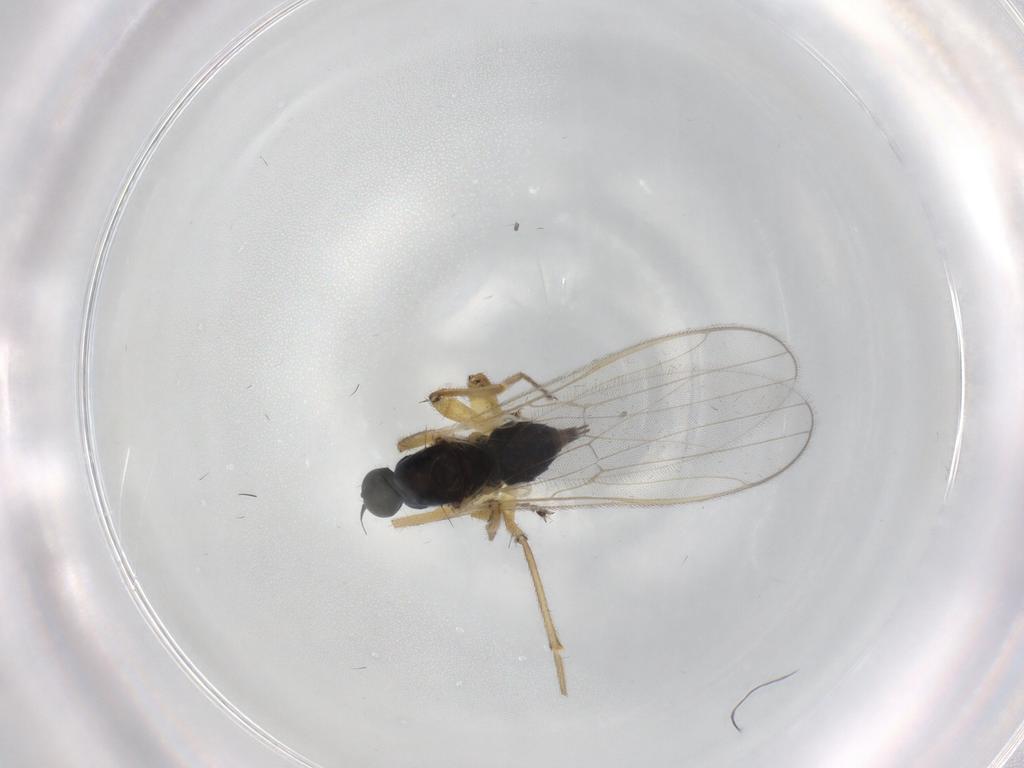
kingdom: Animalia
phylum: Arthropoda
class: Insecta
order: Diptera
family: Hybotidae
